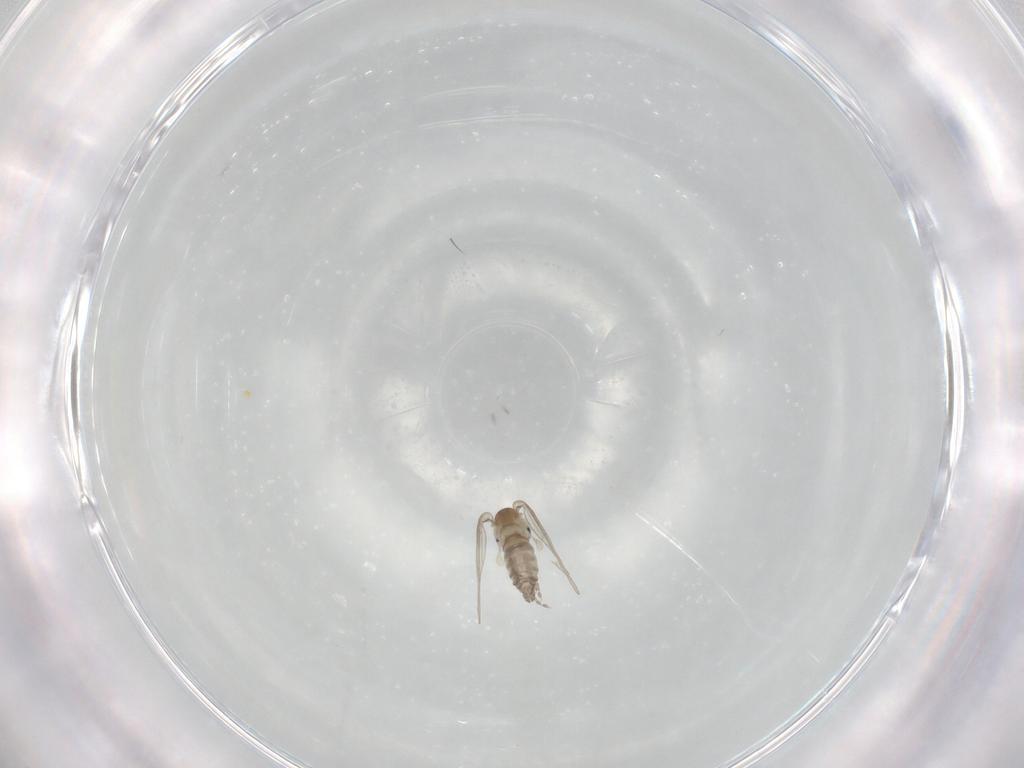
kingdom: Animalia
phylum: Arthropoda
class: Insecta
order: Diptera
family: Cecidomyiidae
